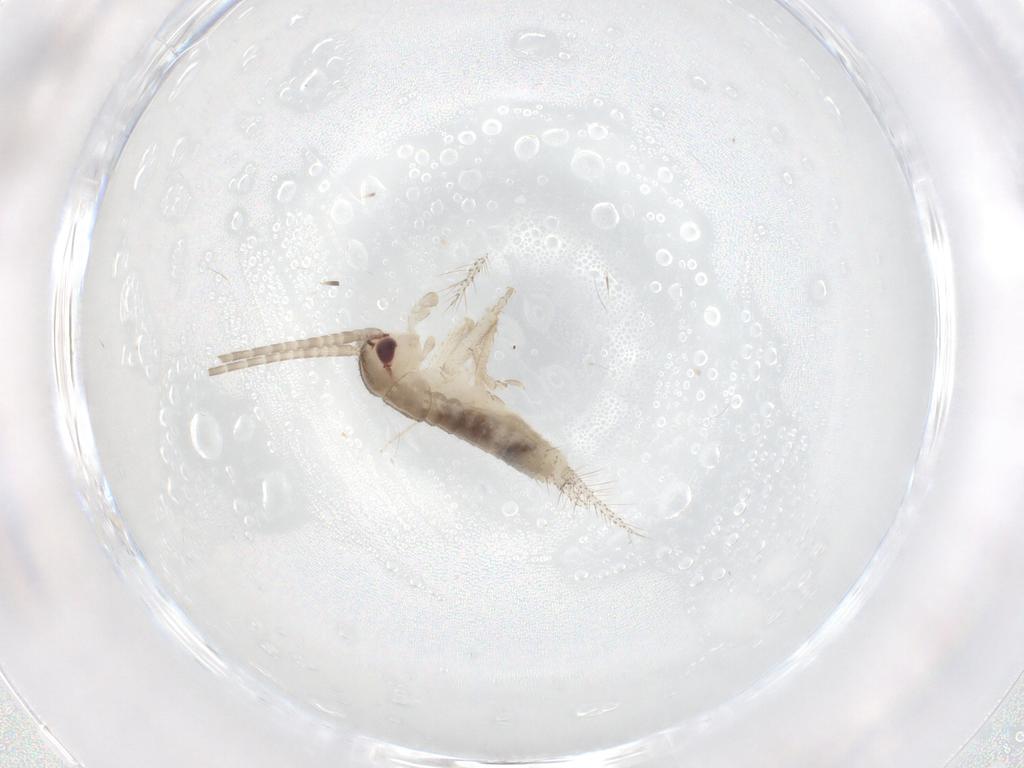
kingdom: Animalia
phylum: Arthropoda
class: Insecta
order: Orthoptera
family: Gryllidae
